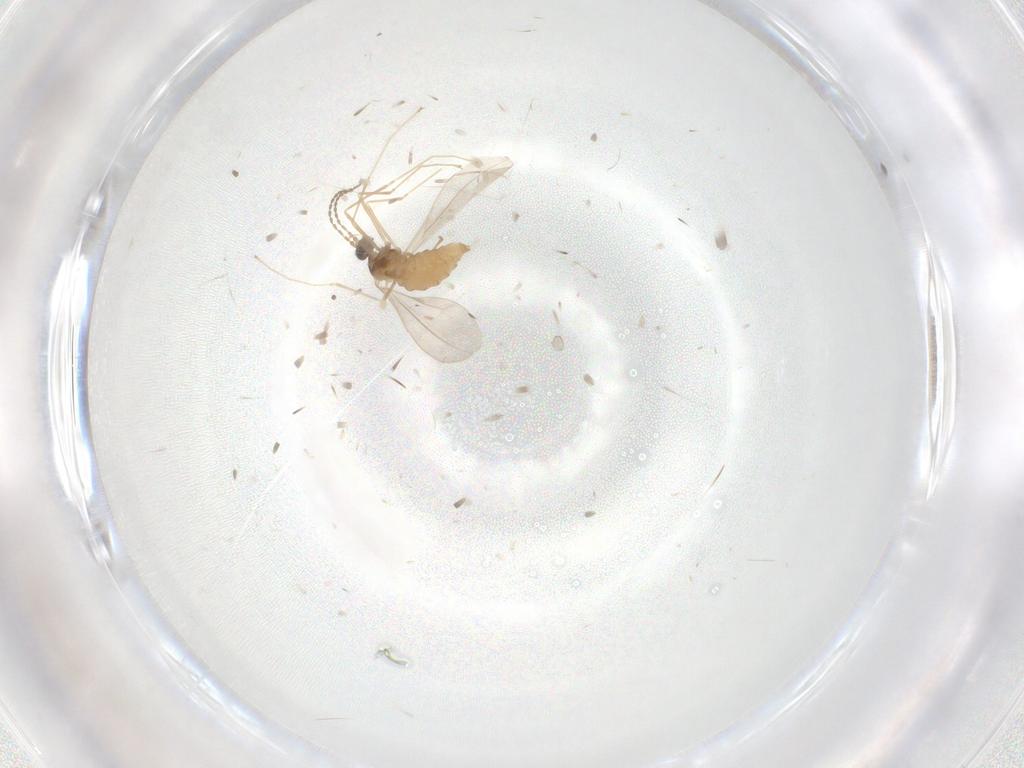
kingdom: Animalia
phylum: Arthropoda
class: Insecta
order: Diptera
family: Cecidomyiidae
